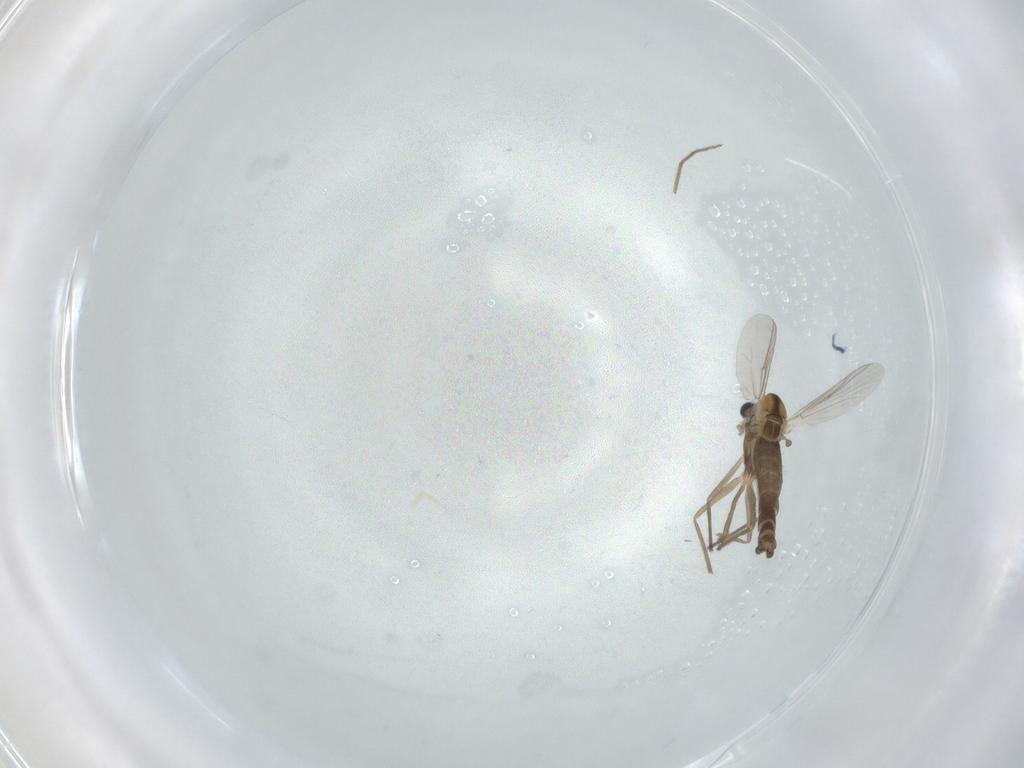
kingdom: Animalia
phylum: Arthropoda
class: Insecta
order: Diptera
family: Chironomidae
